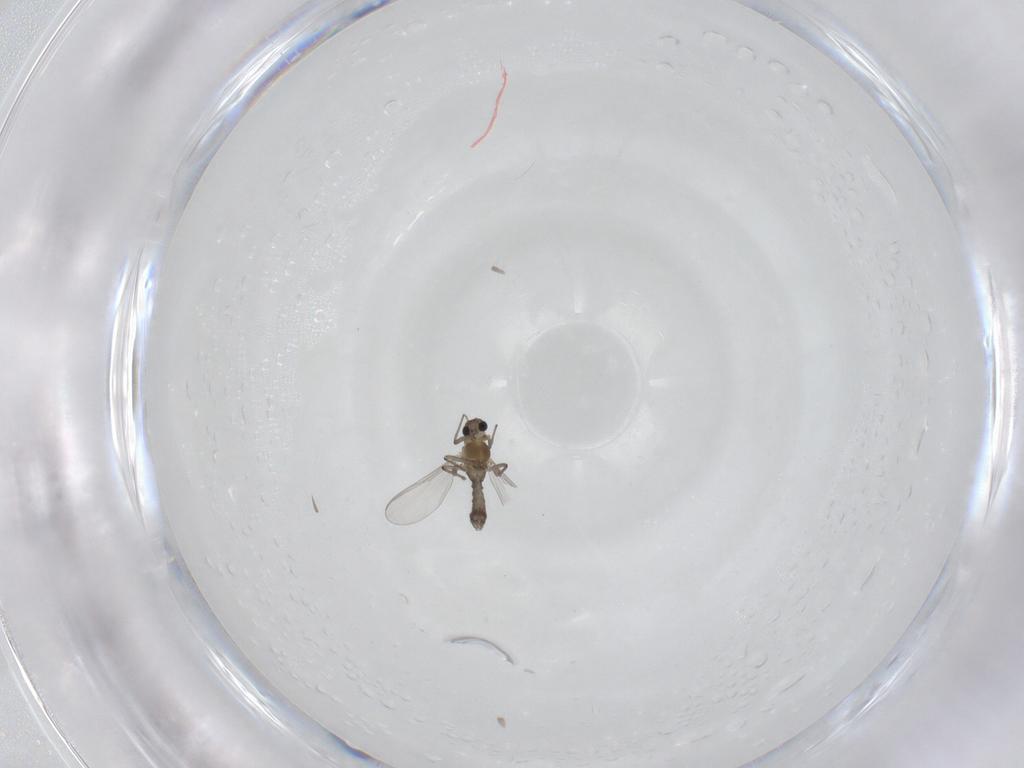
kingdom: Animalia
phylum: Arthropoda
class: Insecta
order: Diptera
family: Chironomidae
